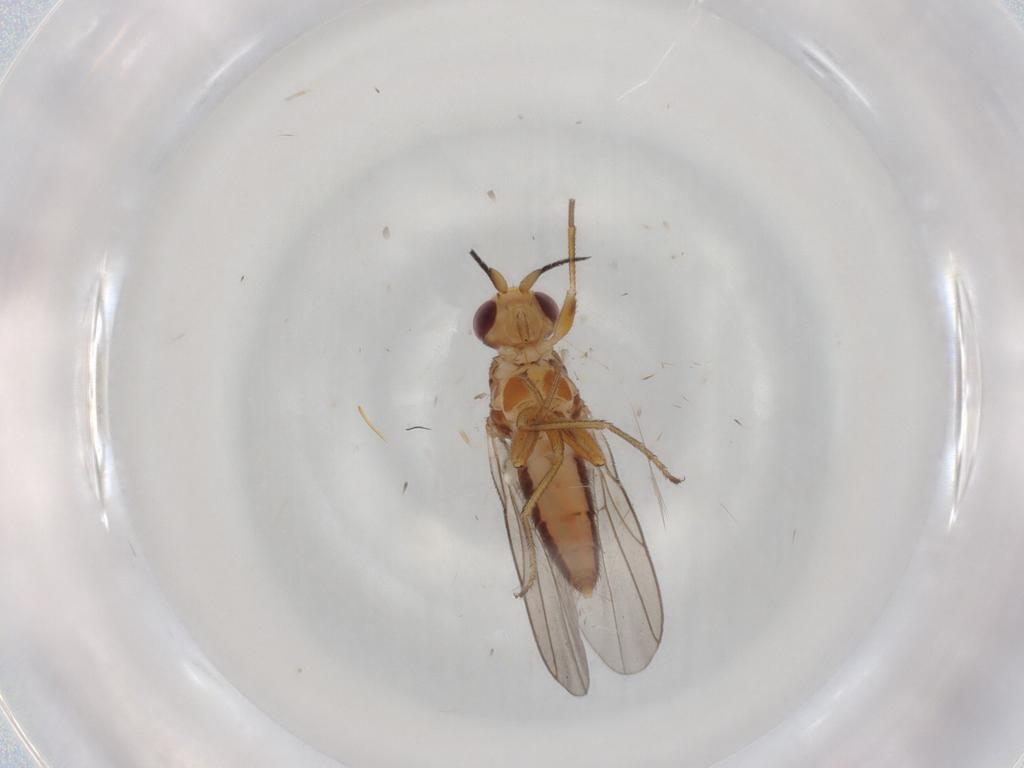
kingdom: Animalia
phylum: Arthropoda
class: Insecta
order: Diptera
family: Chloropidae
